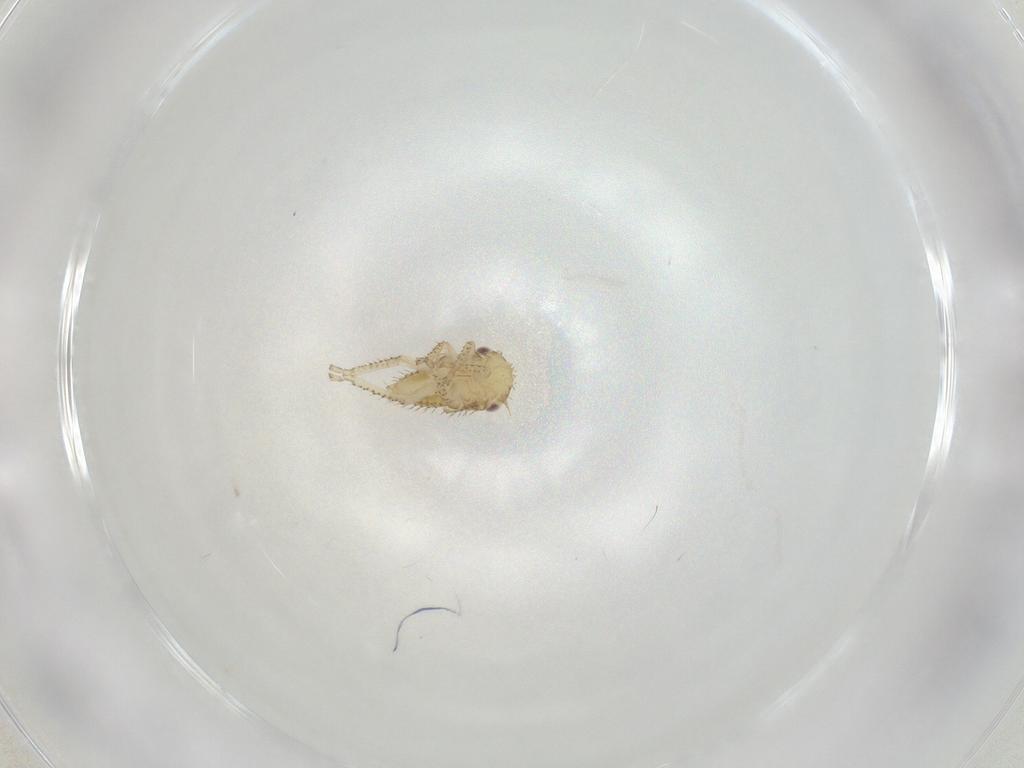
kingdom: Animalia
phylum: Arthropoda
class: Insecta
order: Hemiptera
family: Cicadellidae
